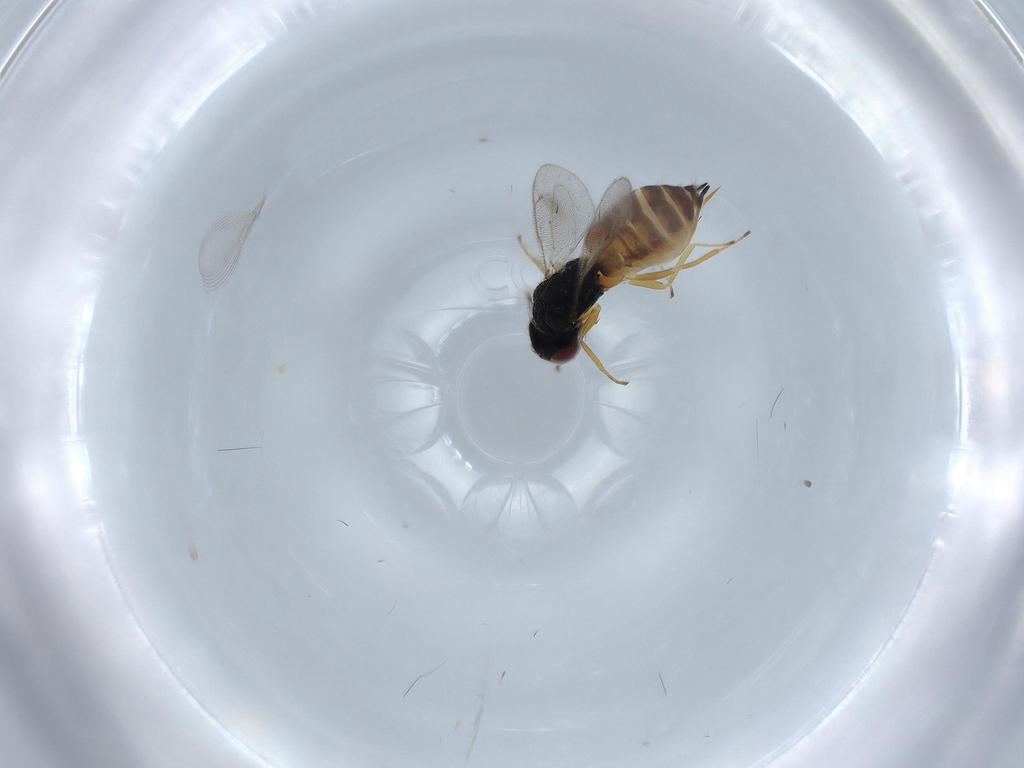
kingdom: Animalia
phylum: Arthropoda
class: Insecta
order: Hymenoptera
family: Eulophidae
